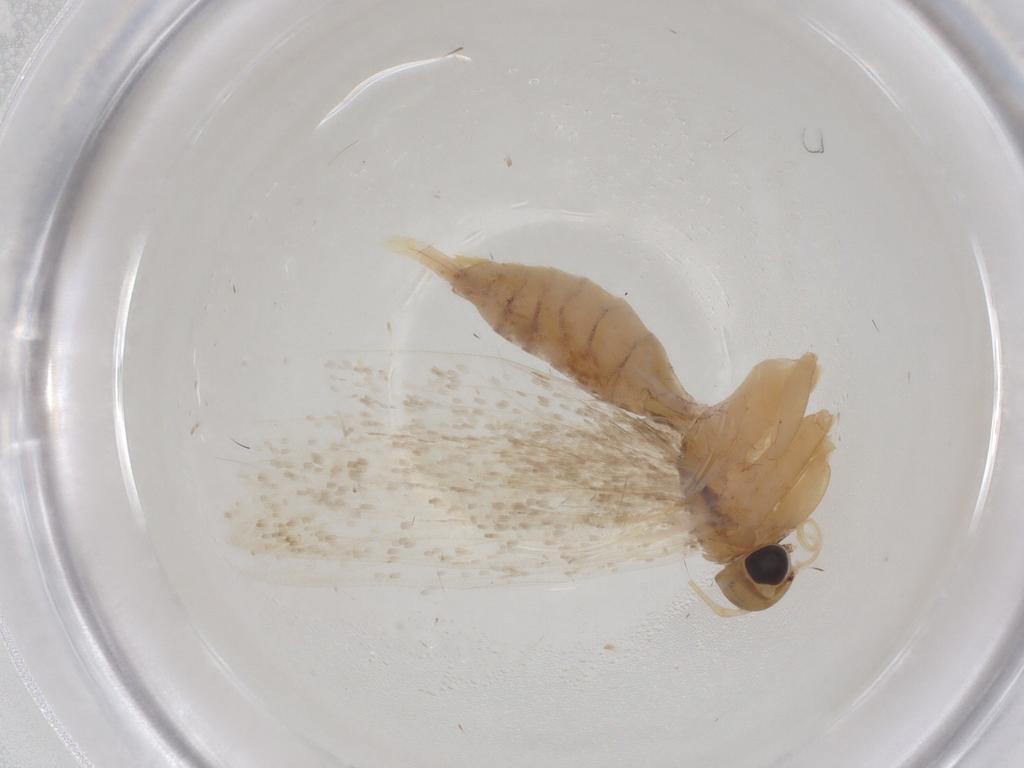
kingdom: Animalia
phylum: Arthropoda
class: Insecta
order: Lepidoptera
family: Gelechiidae
